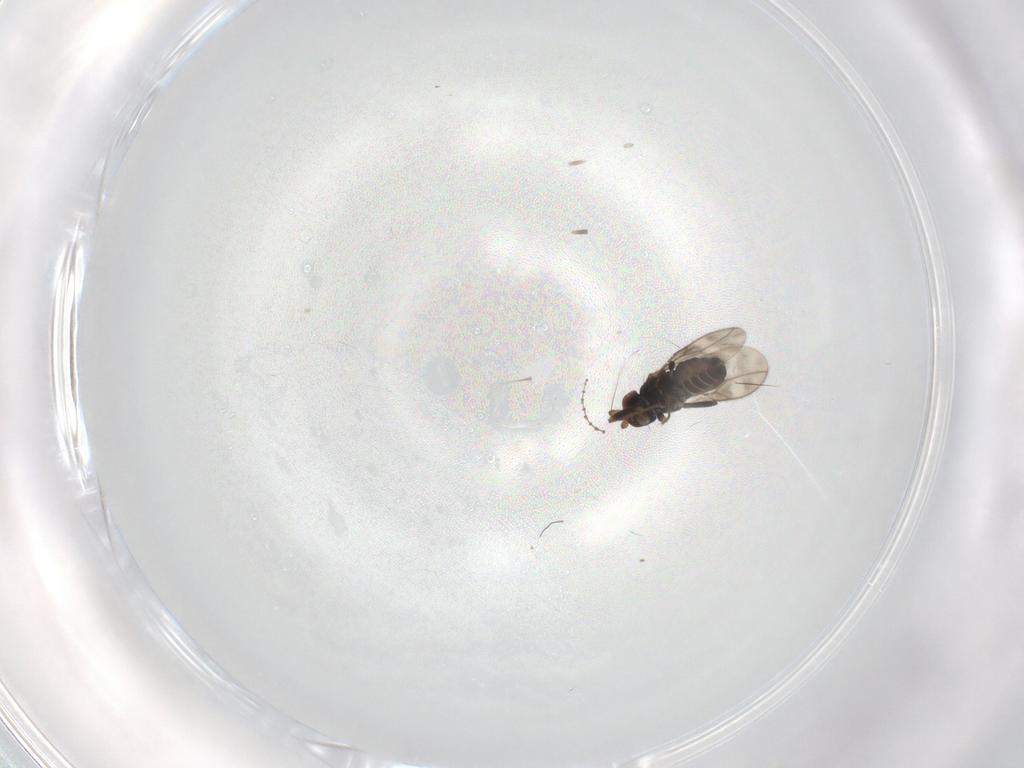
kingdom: Animalia
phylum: Arthropoda
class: Insecta
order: Diptera
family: Sphaeroceridae
